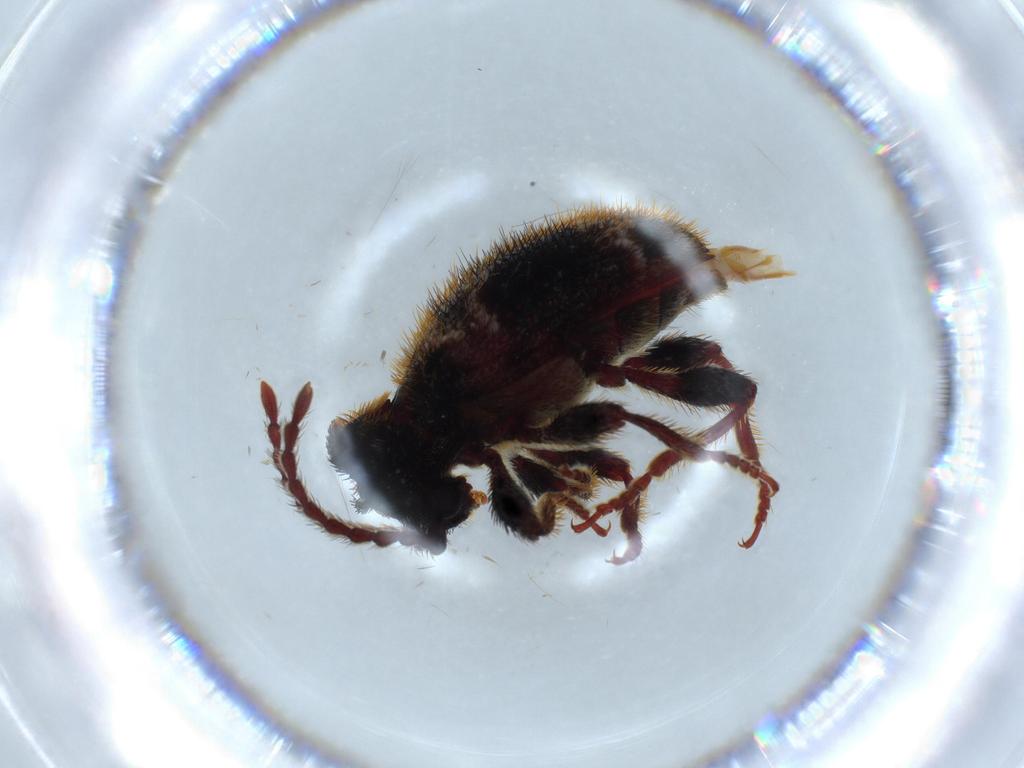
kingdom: Animalia
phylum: Arthropoda
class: Insecta
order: Coleoptera
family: Ptinidae
